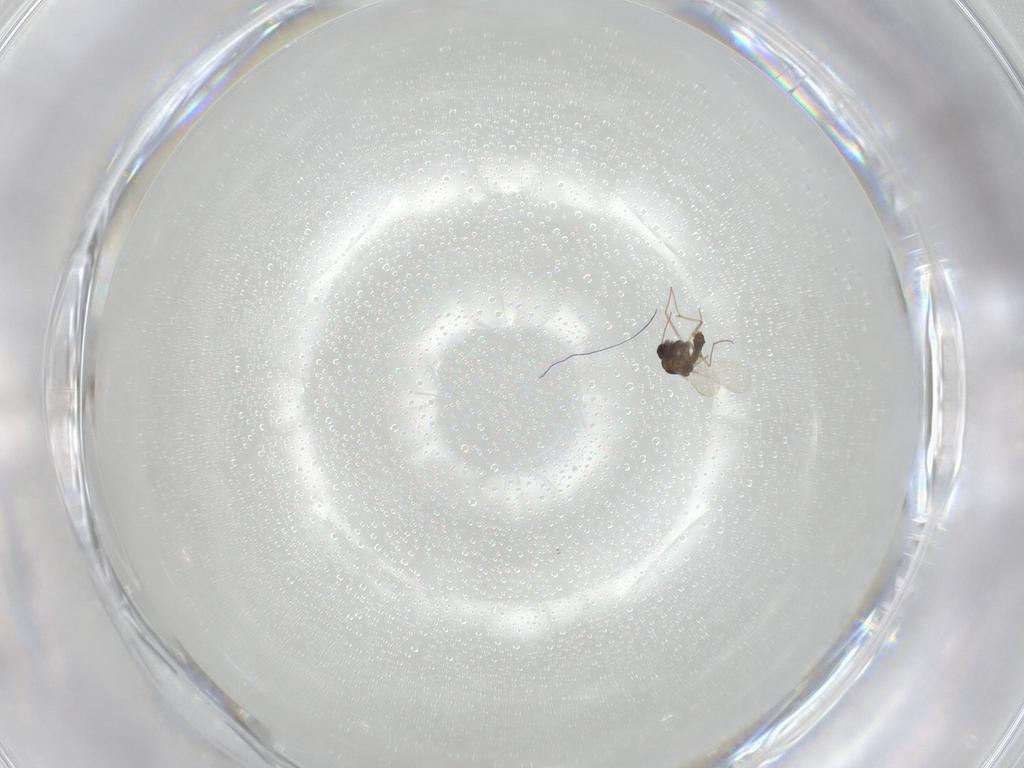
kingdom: Animalia
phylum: Arthropoda
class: Insecta
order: Diptera
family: Chironomidae
